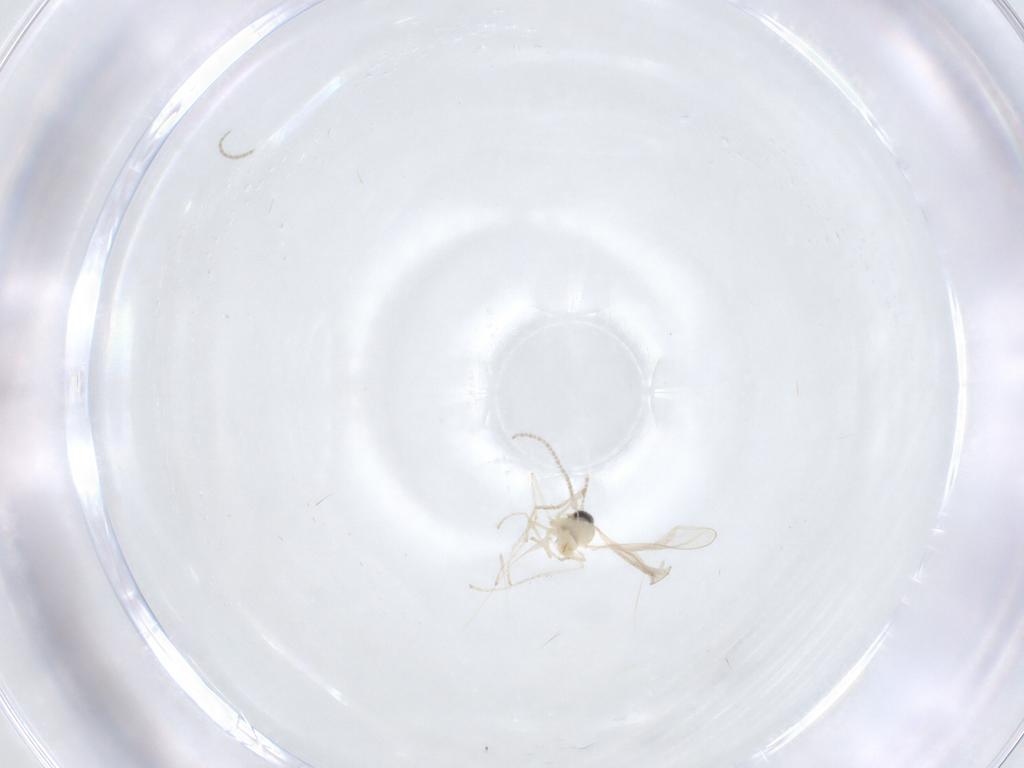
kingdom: Animalia
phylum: Arthropoda
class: Insecta
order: Diptera
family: Cecidomyiidae
